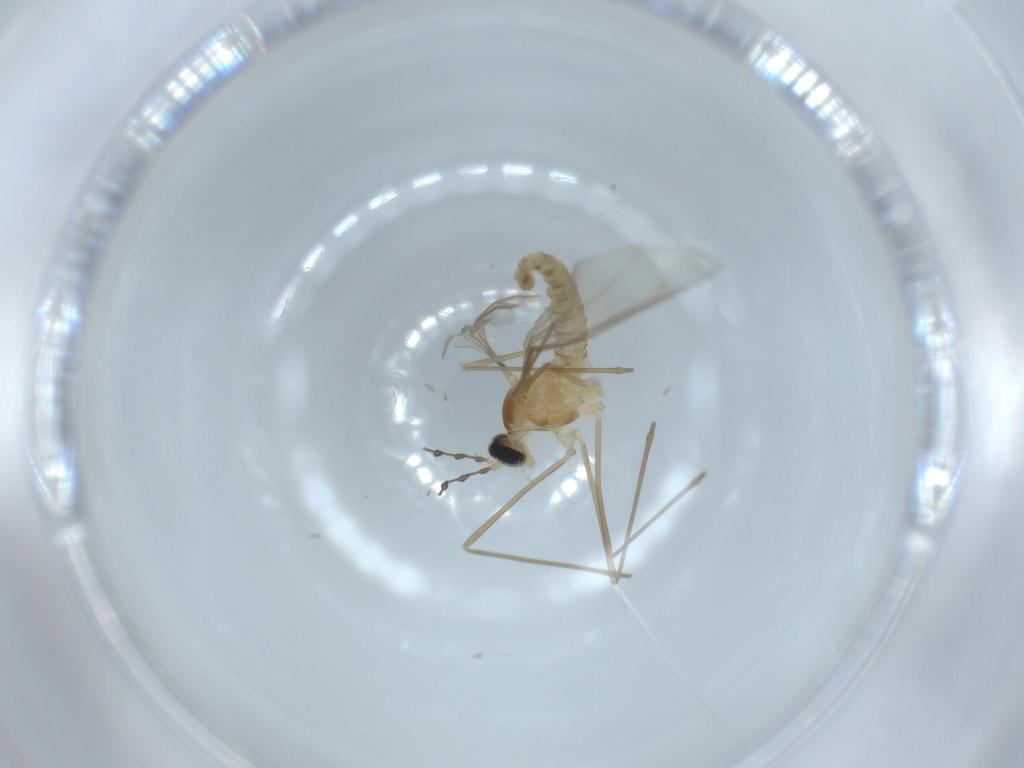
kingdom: Animalia
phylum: Arthropoda
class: Insecta
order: Diptera
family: Cecidomyiidae
